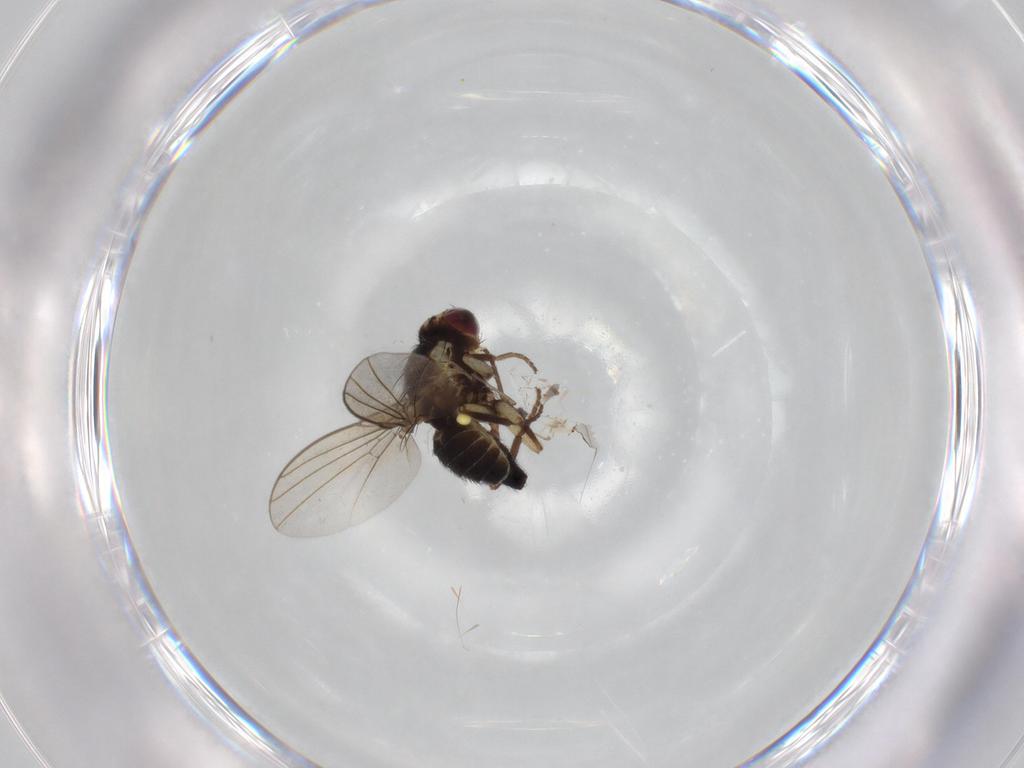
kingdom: Animalia
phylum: Arthropoda
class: Insecta
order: Diptera
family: Agromyzidae
